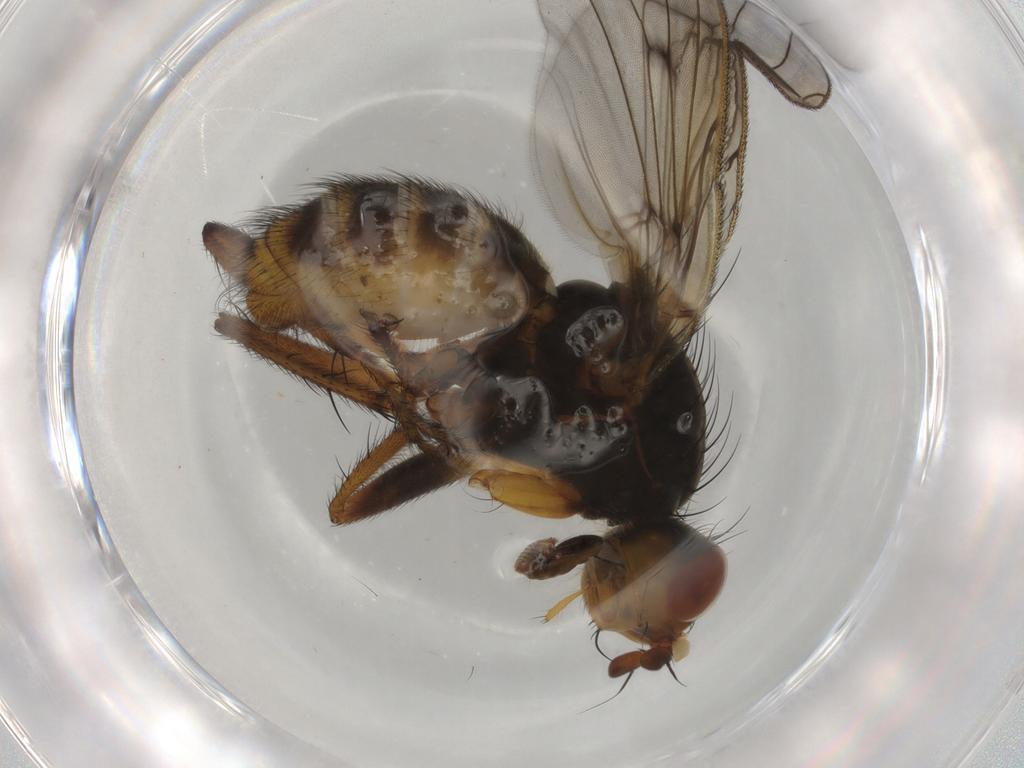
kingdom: Animalia
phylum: Arthropoda
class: Insecta
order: Diptera
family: Scathophagidae
